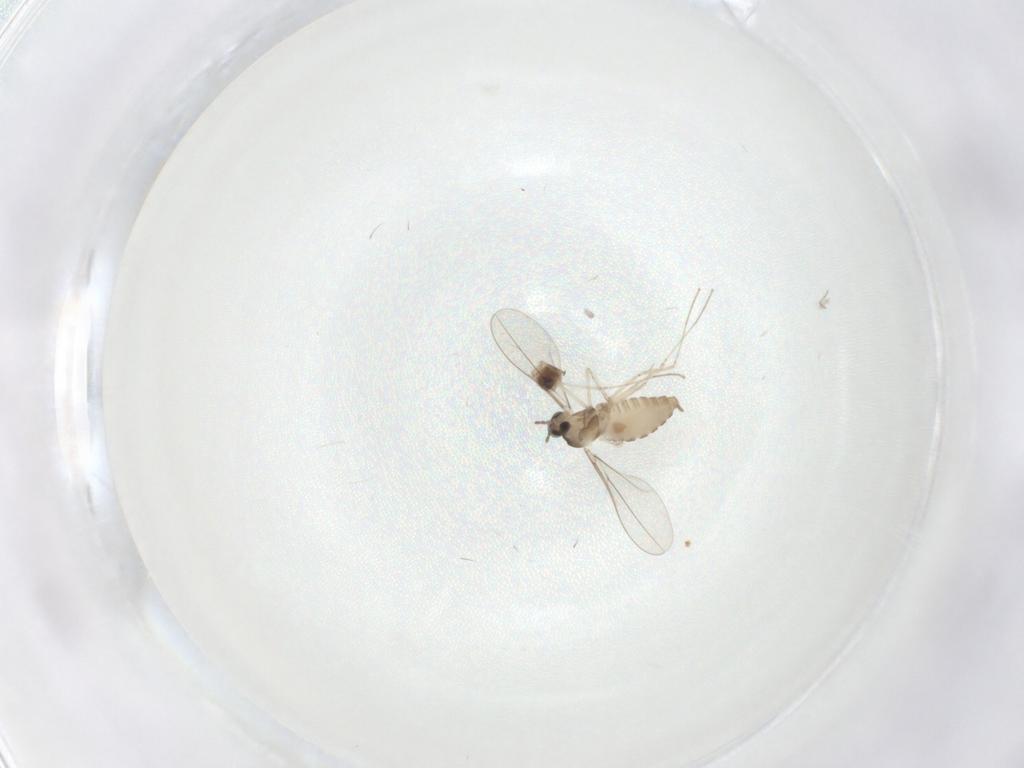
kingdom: Animalia
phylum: Arthropoda
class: Insecta
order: Diptera
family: Cecidomyiidae
